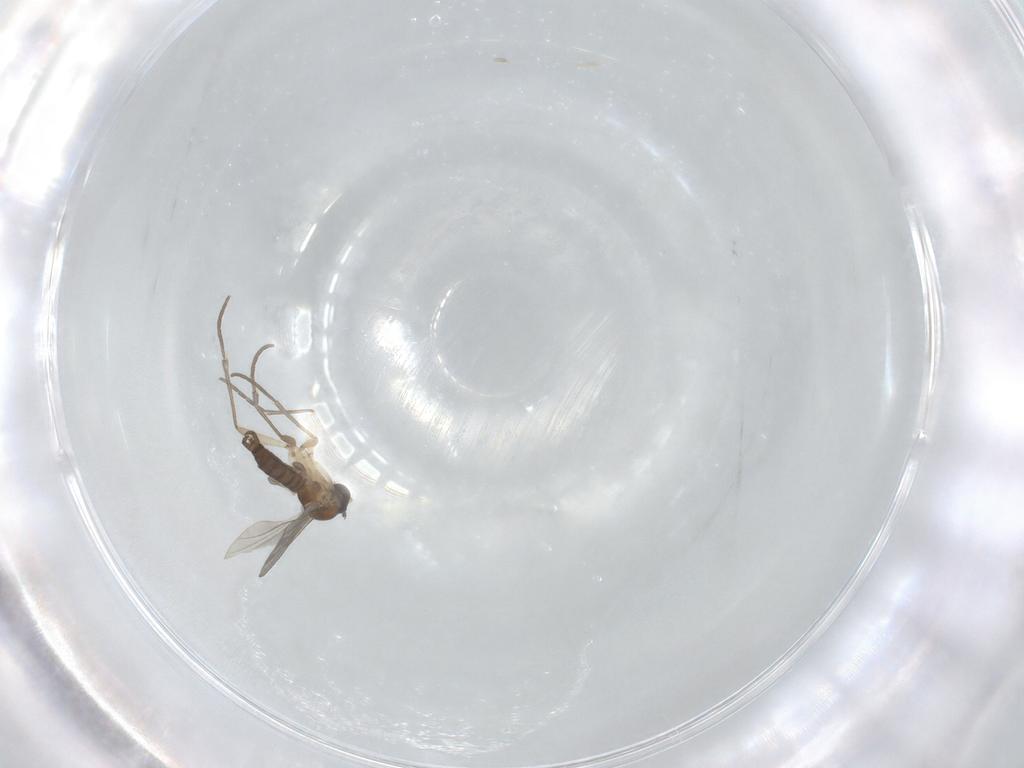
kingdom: Animalia
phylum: Arthropoda
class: Insecta
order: Diptera
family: Sciaridae
